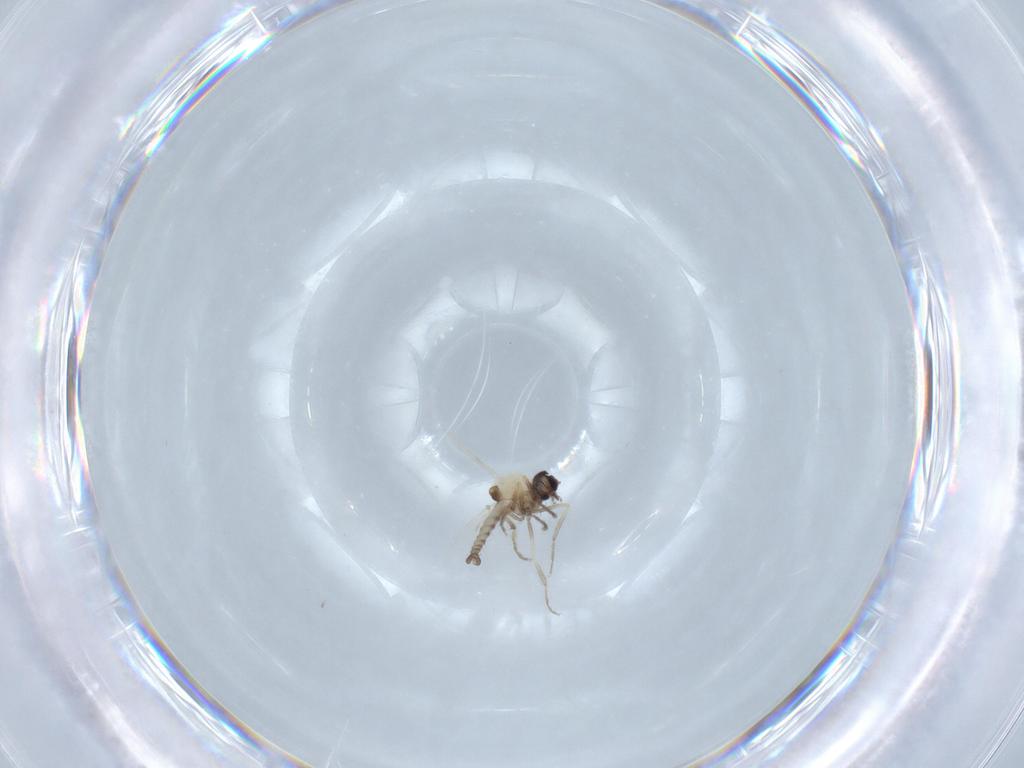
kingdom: Animalia
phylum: Arthropoda
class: Insecta
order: Diptera
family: Ceratopogonidae
